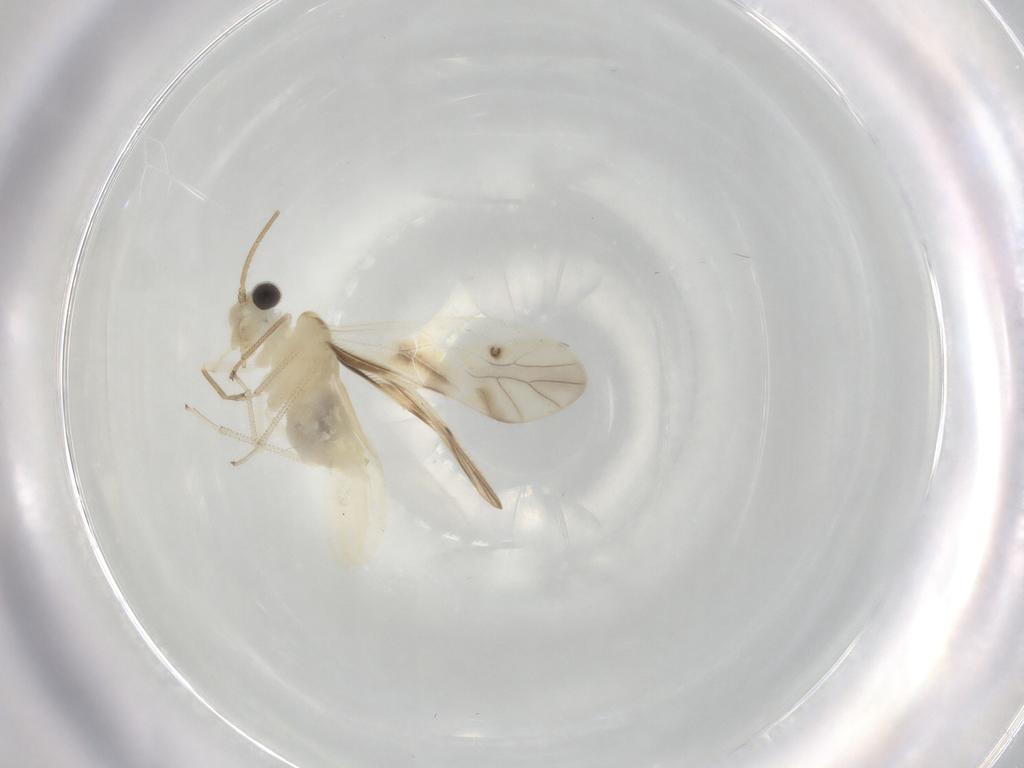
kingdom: Animalia
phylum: Arthropoda
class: Insecta
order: Psocodea
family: Caeciliusidae
